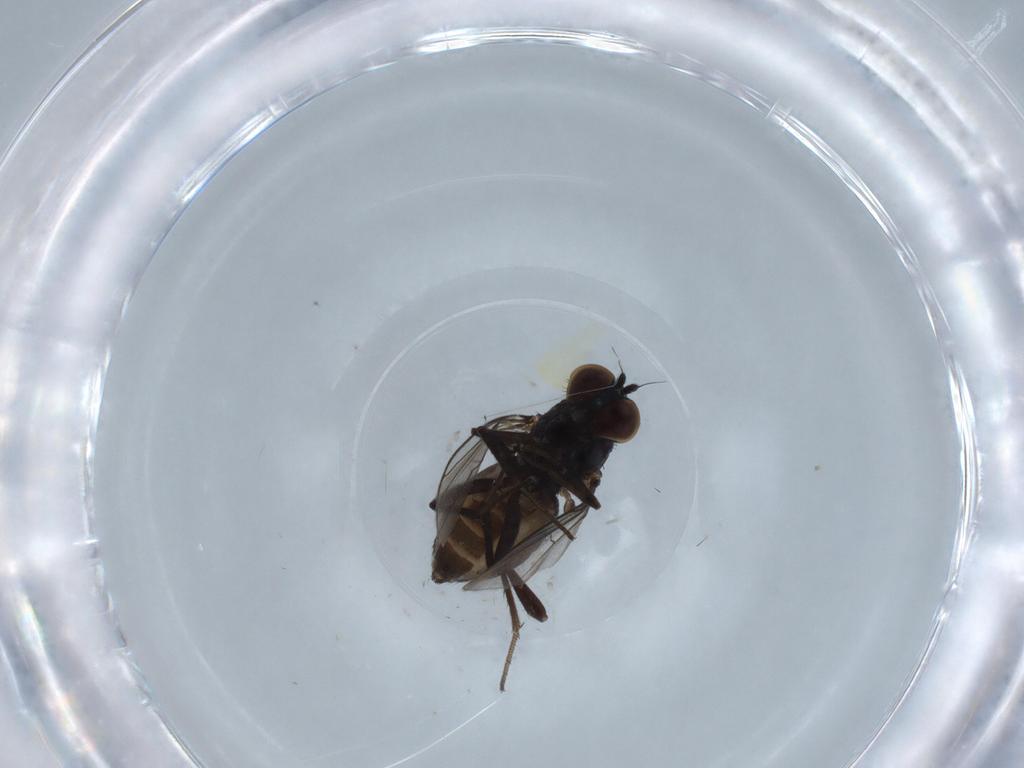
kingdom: Animalia
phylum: Arthropoda
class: Insecta
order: Diptera
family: Dolichopodidae
